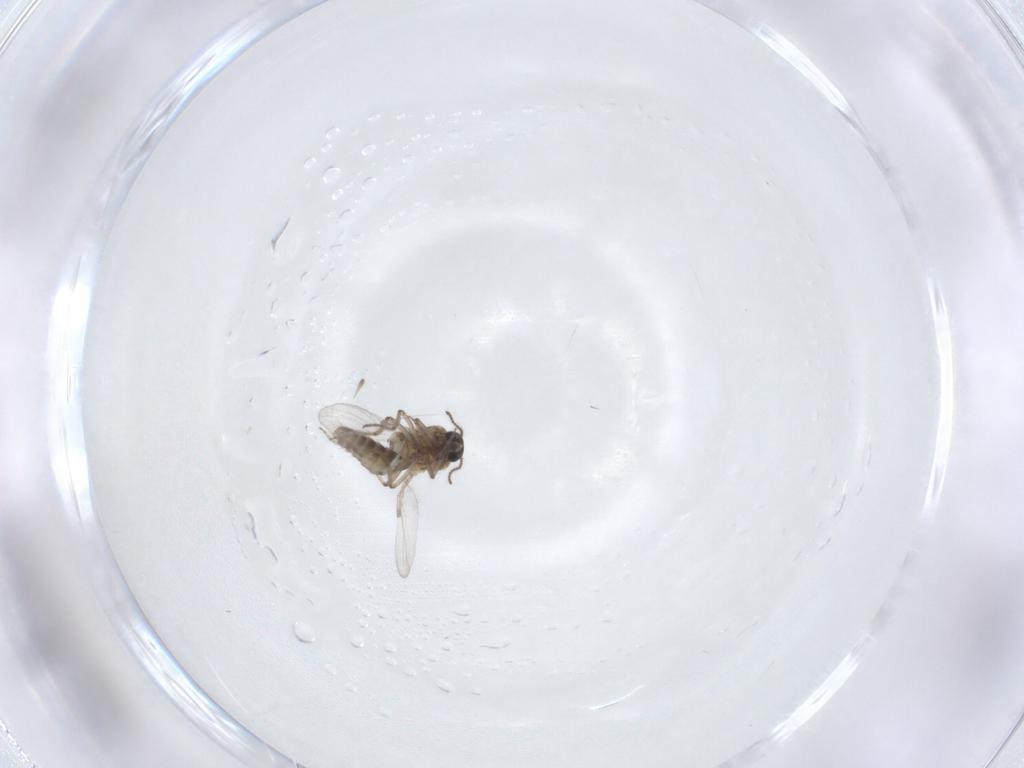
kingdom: Animalia
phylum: Arthropoda
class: Insecta
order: Diptera
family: Ceratopogonidae
